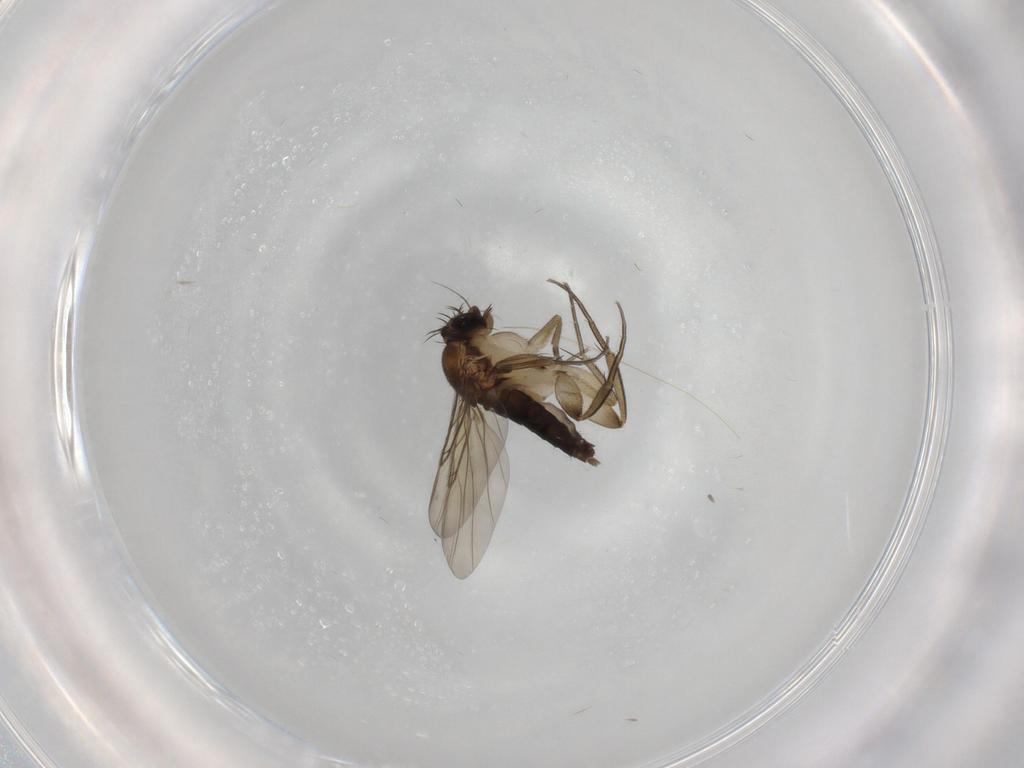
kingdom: Animalia
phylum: Arthropoda
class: Insecta
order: Diptera
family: Phoridae
